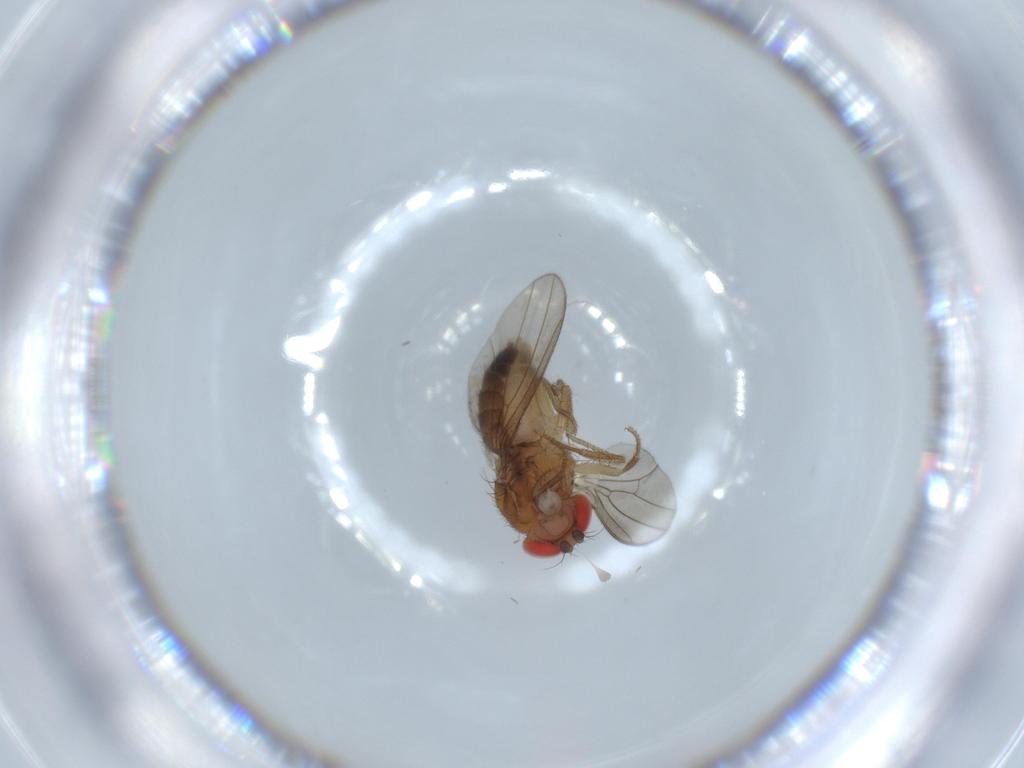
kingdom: Animalia
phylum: Arthropoda
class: Insecta
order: Diptera
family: Drosophilidae
